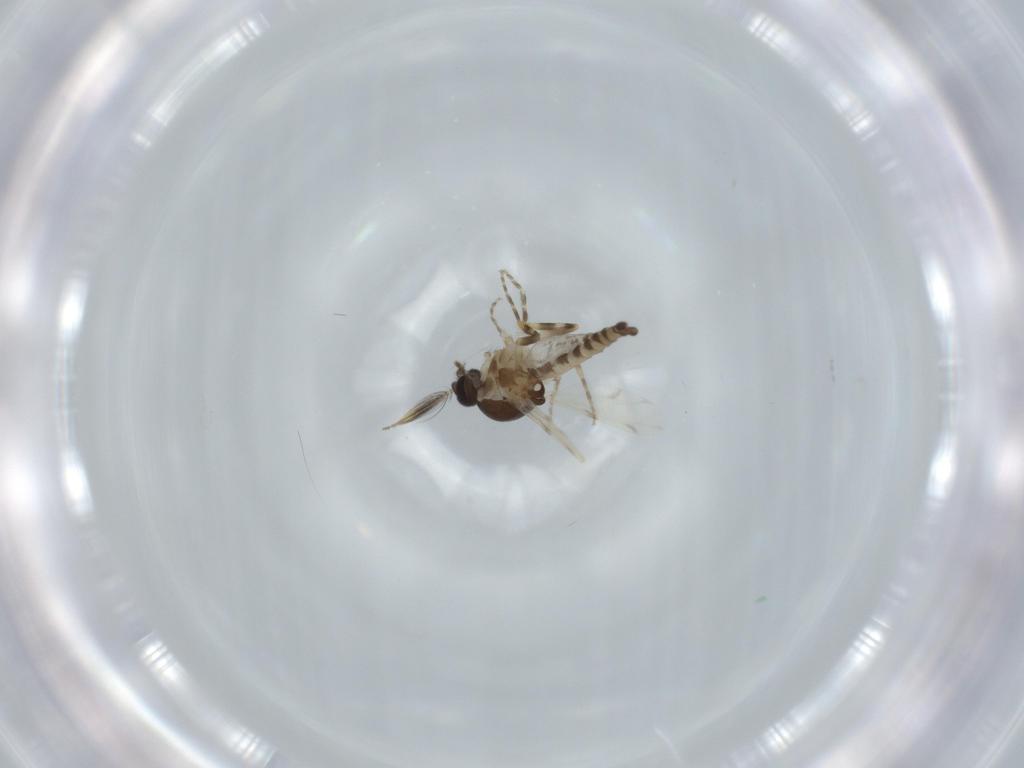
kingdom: Animalia
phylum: Arthropoda
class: Insecta
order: Diptera
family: Ceratopogonidae
